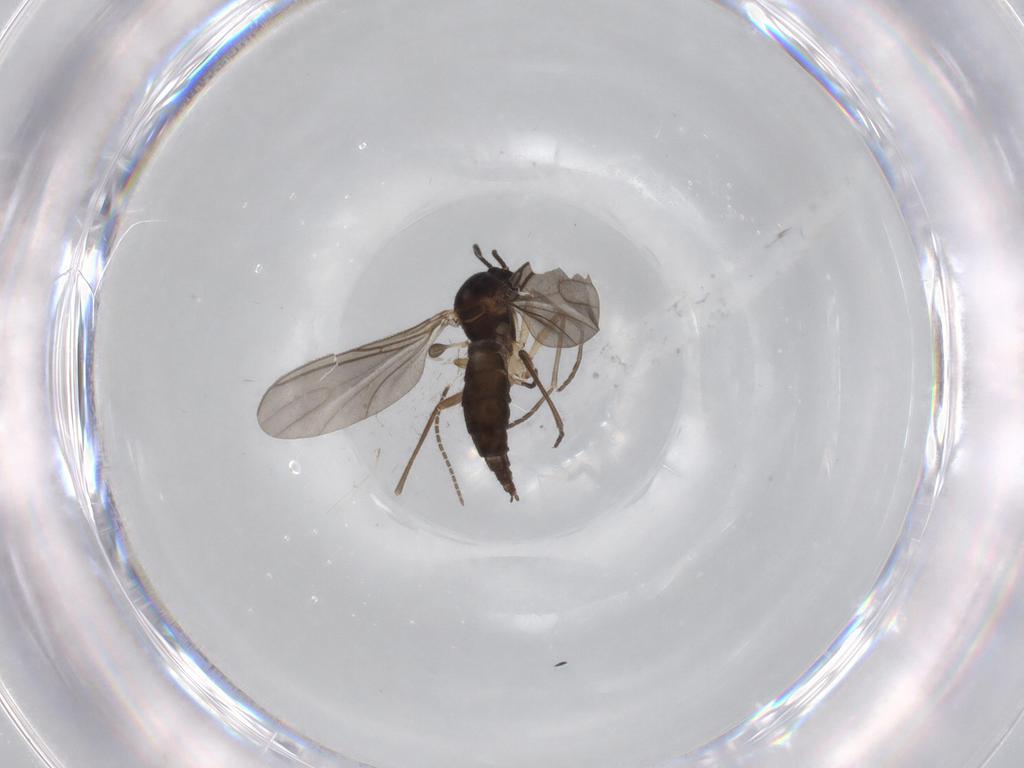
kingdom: Animalia
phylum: Arthropoda
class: Insecta
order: Diptera
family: Sciaridae
